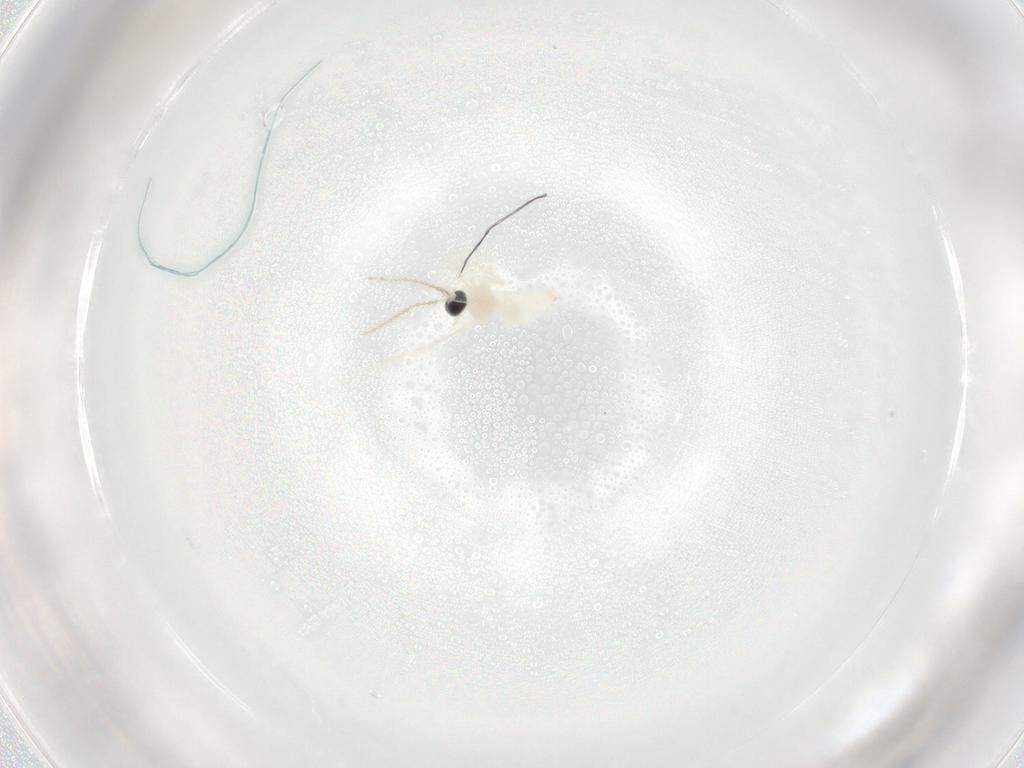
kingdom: Animalia
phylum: Arthropoda
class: Insecta
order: Diptera
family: Cecidomyiidae
